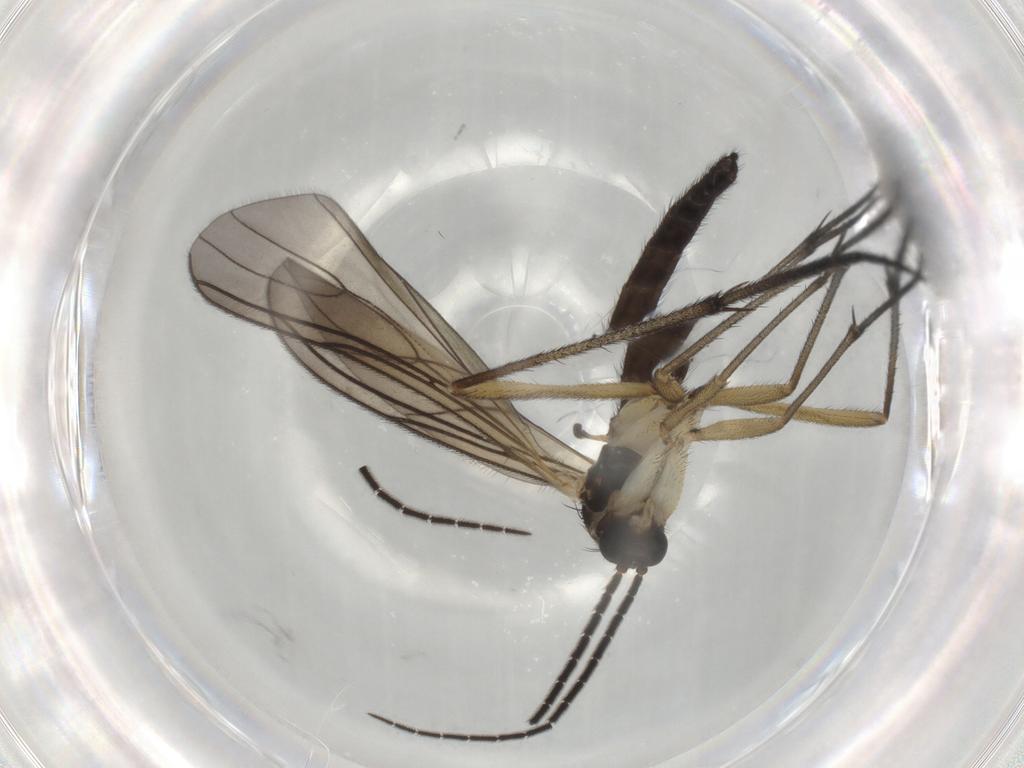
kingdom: Animalia
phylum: Arthropoda
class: Insecta
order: Diptera
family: Sciaridae
